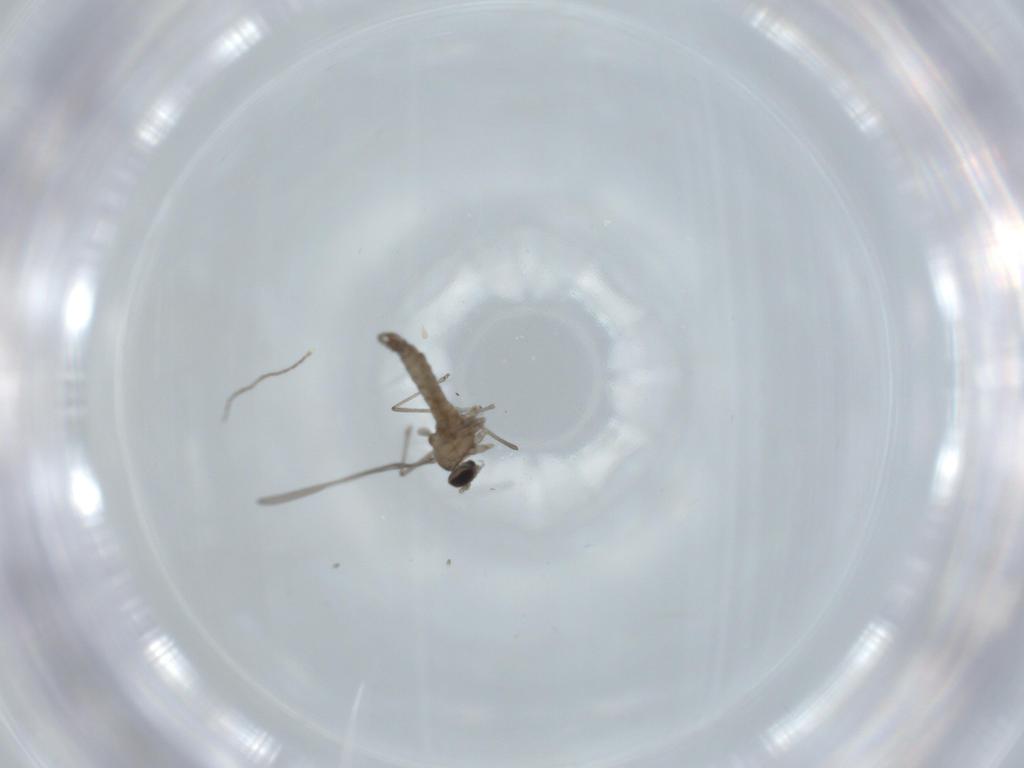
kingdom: Animalia
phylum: Arthropoda
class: Insecta
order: Diptera
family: Cecidomyiidae
